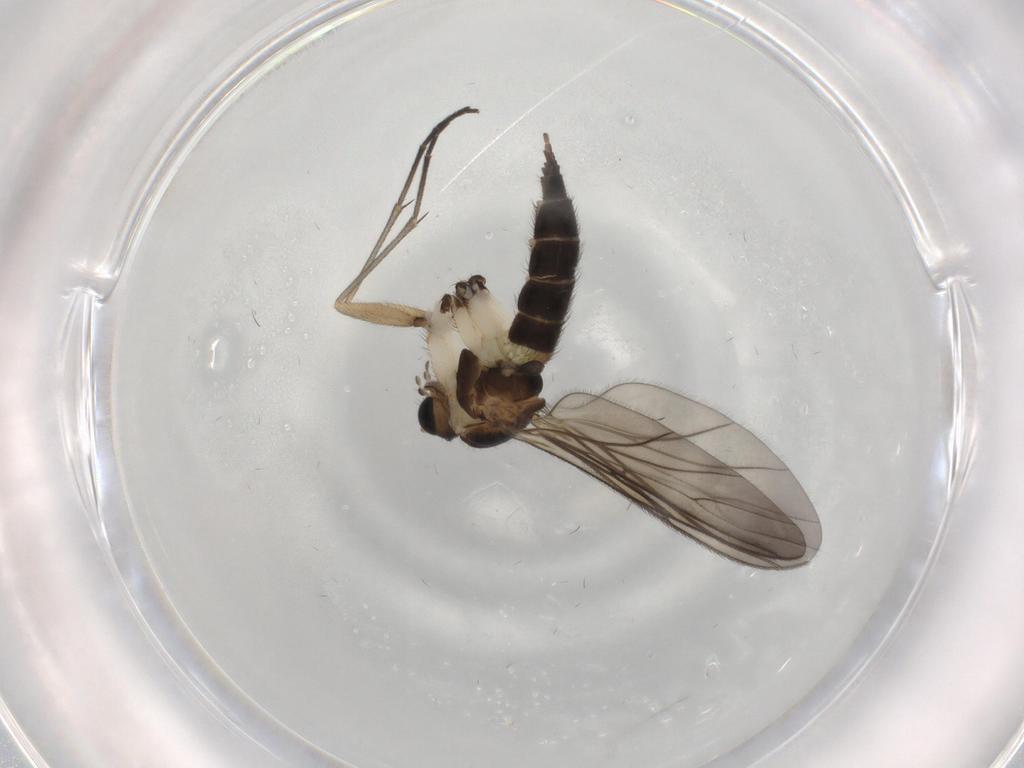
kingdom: Animalia
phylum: Arthropoda
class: Insecta
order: Diptera
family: Sciaridae
